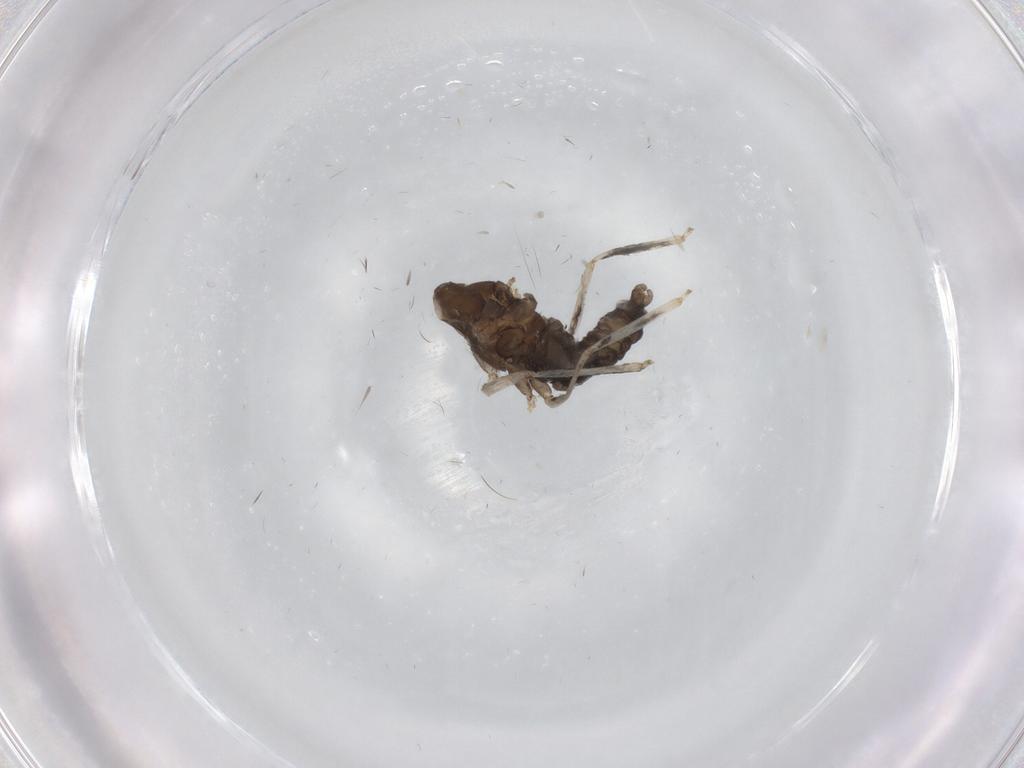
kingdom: Animalia
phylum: Arthropoda
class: Insecta
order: Diptera
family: Cecidomyiidae
